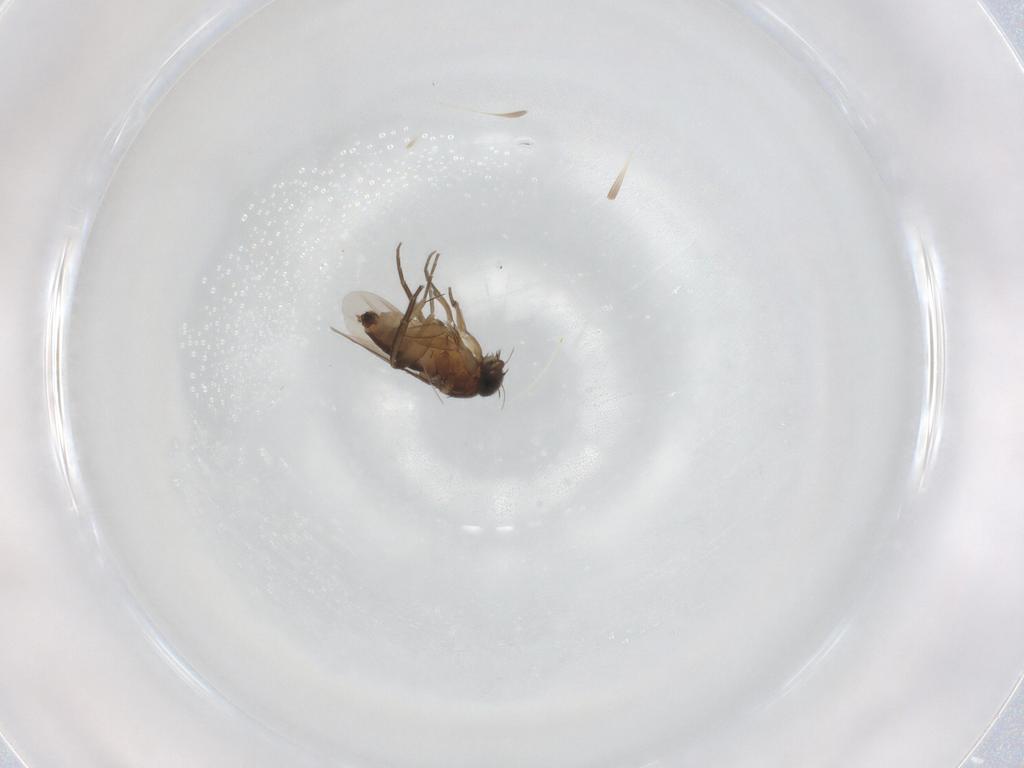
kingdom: Animalia
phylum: Arthropoda
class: Insecta
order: Diptera
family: Phoridae
